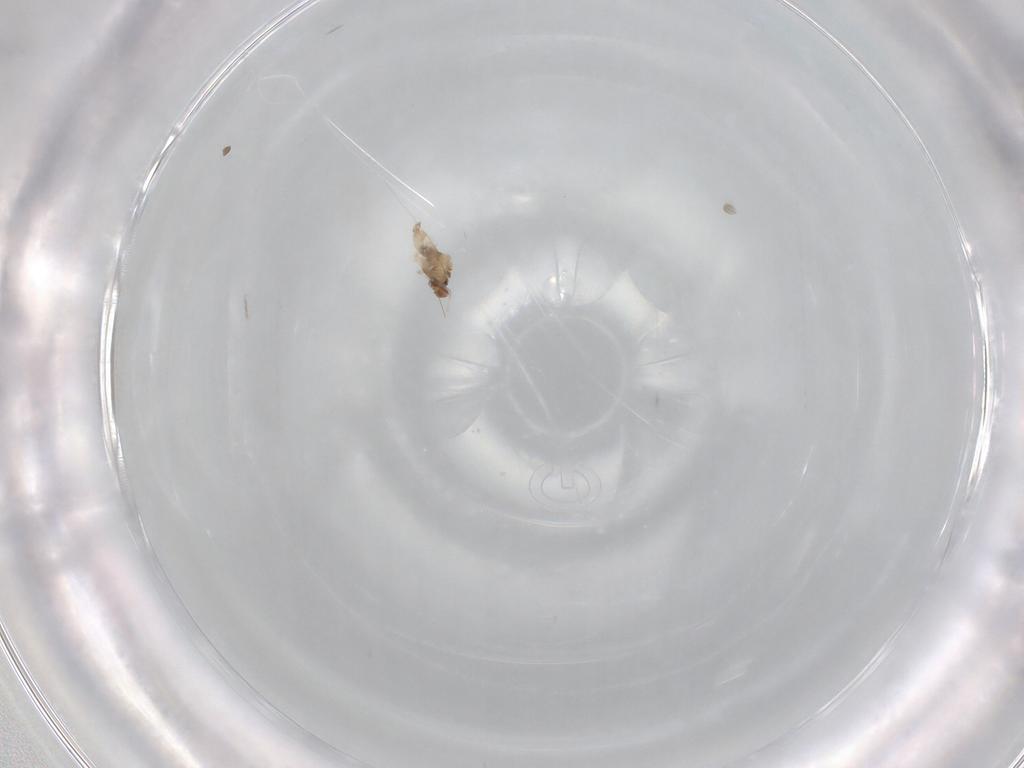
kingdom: Animalia
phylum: Arthropoda
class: Insecta
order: Diptera
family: Cecidomyiidae
